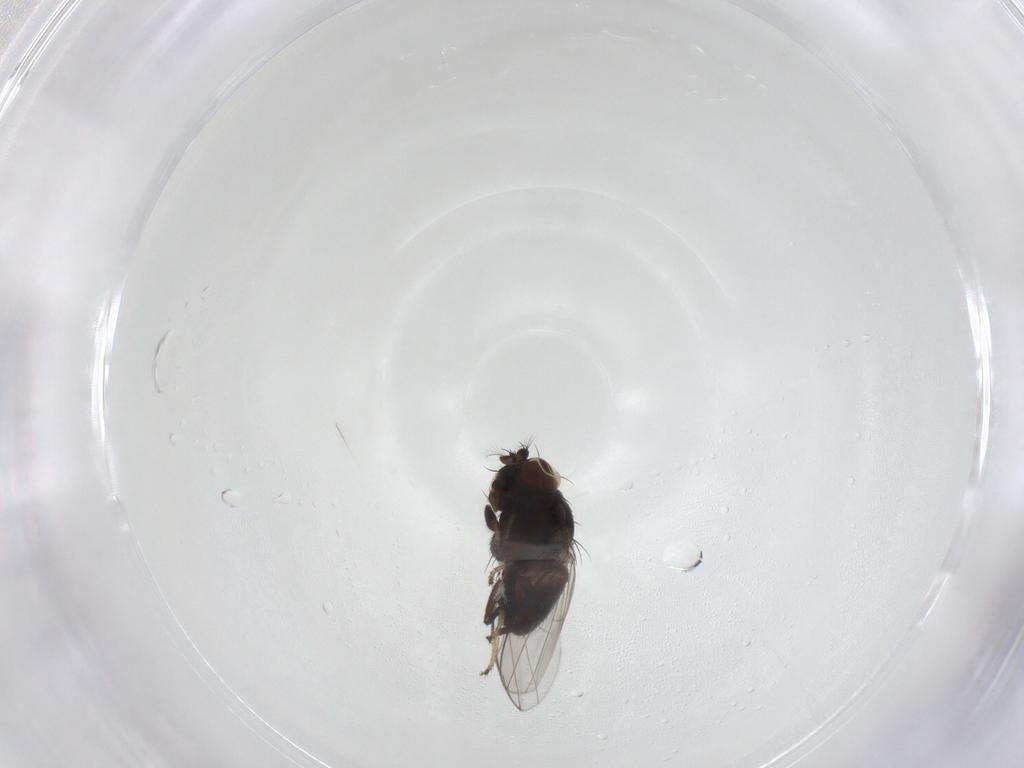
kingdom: Animalia
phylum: Arthropoda
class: Insecta
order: Diptera
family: Ephydridae
